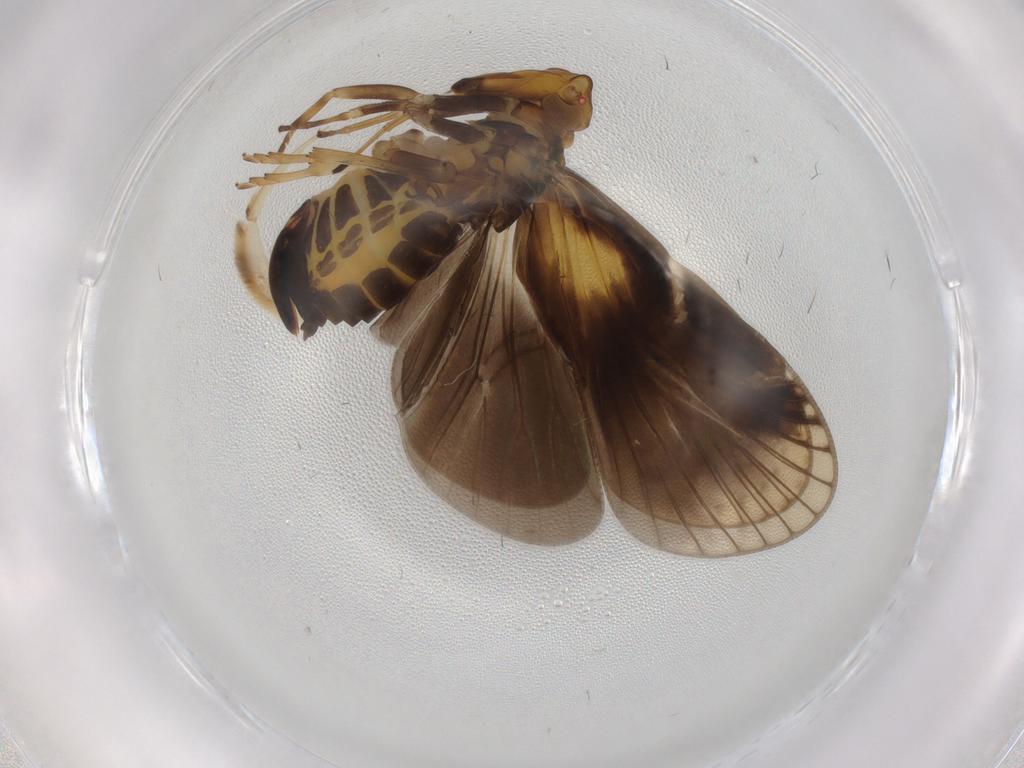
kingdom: Animalia
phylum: Arthropoda
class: Insecta
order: Hemiptera
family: Cixiidae
